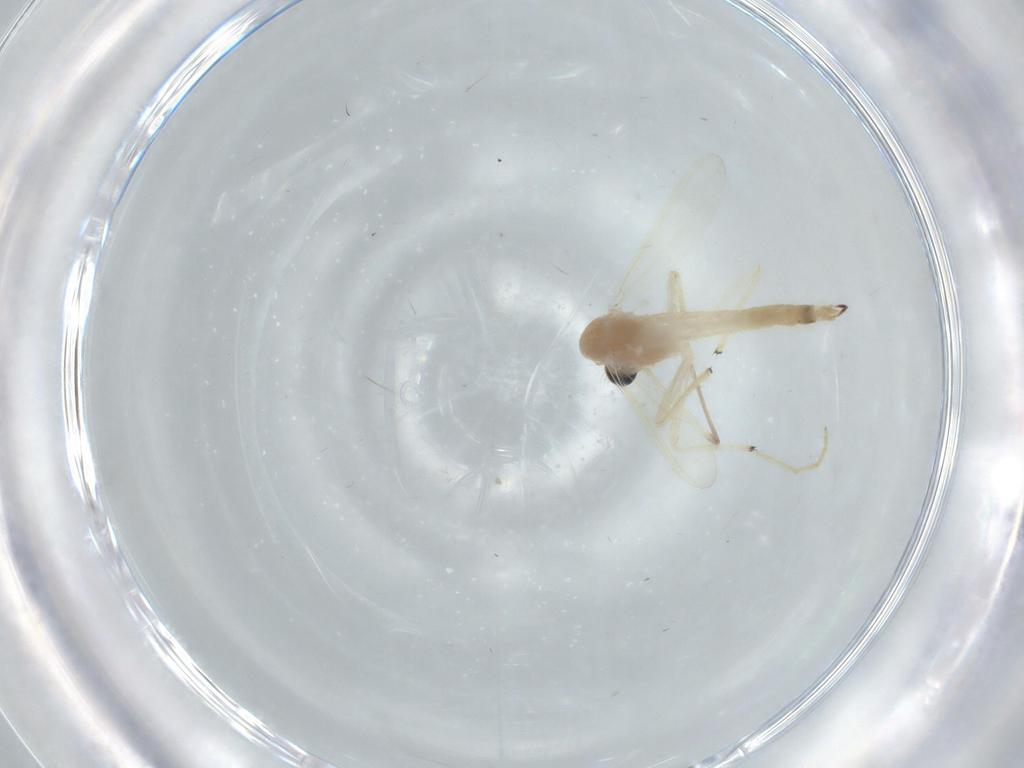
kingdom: Animalia
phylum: Arthropoda
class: Insecta
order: Diptera
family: Chironomidae
